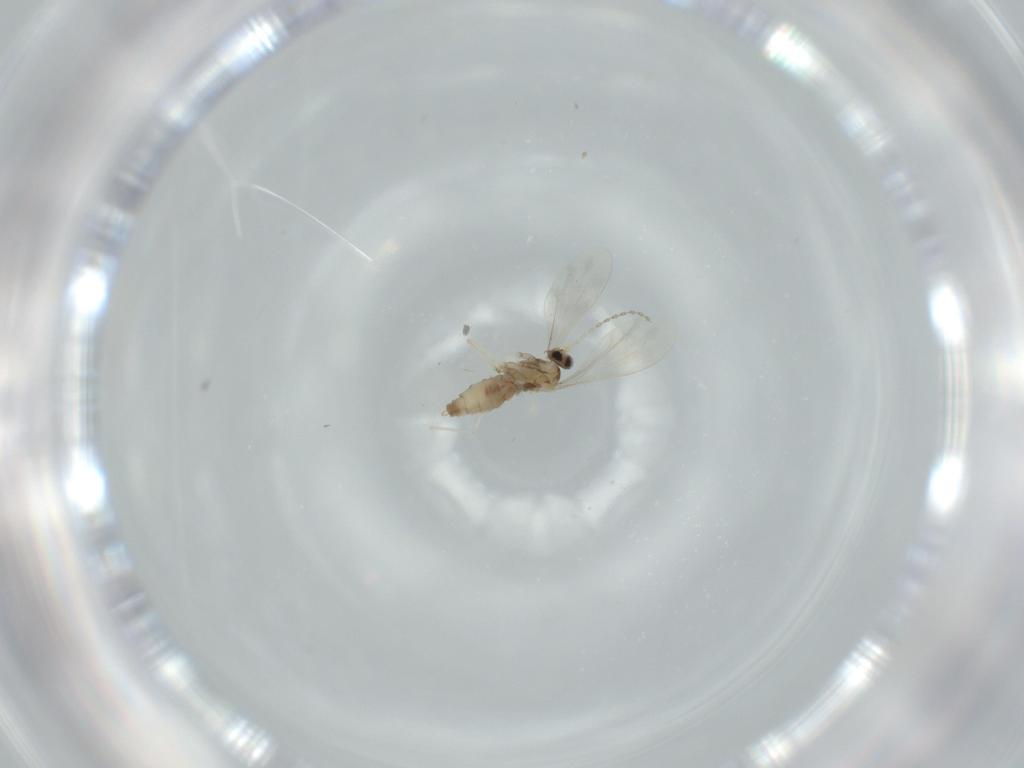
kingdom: Animalia
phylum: Arthropoda
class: Insecta
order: Diptera
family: Cecidomyiidae
